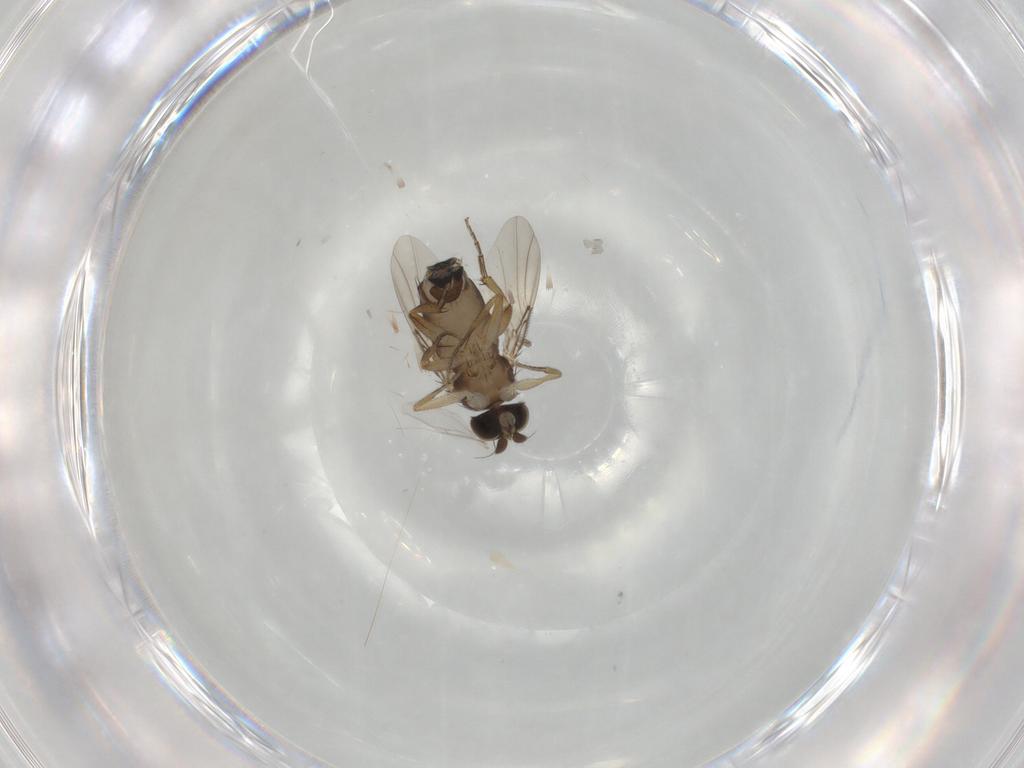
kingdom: Animalia
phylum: Arthropoda
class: Insecta
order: Diptera
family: Phoridae
